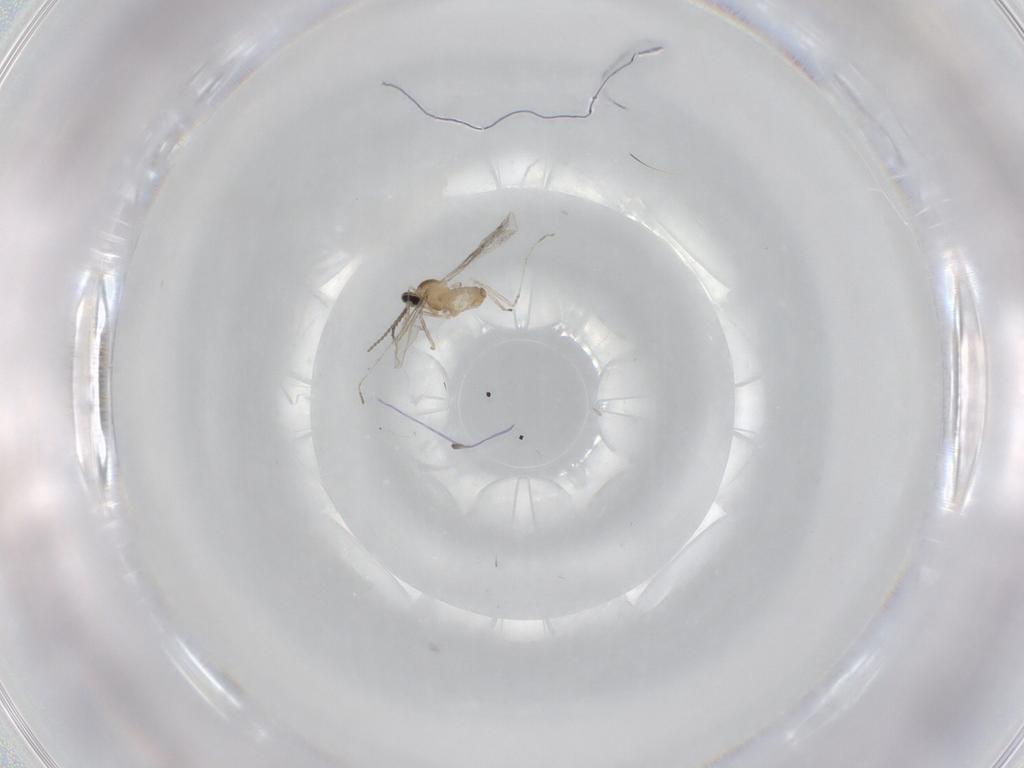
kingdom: Animalia
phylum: Arthropoda
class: Insecta
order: Diptera
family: Cecidomyiidae
